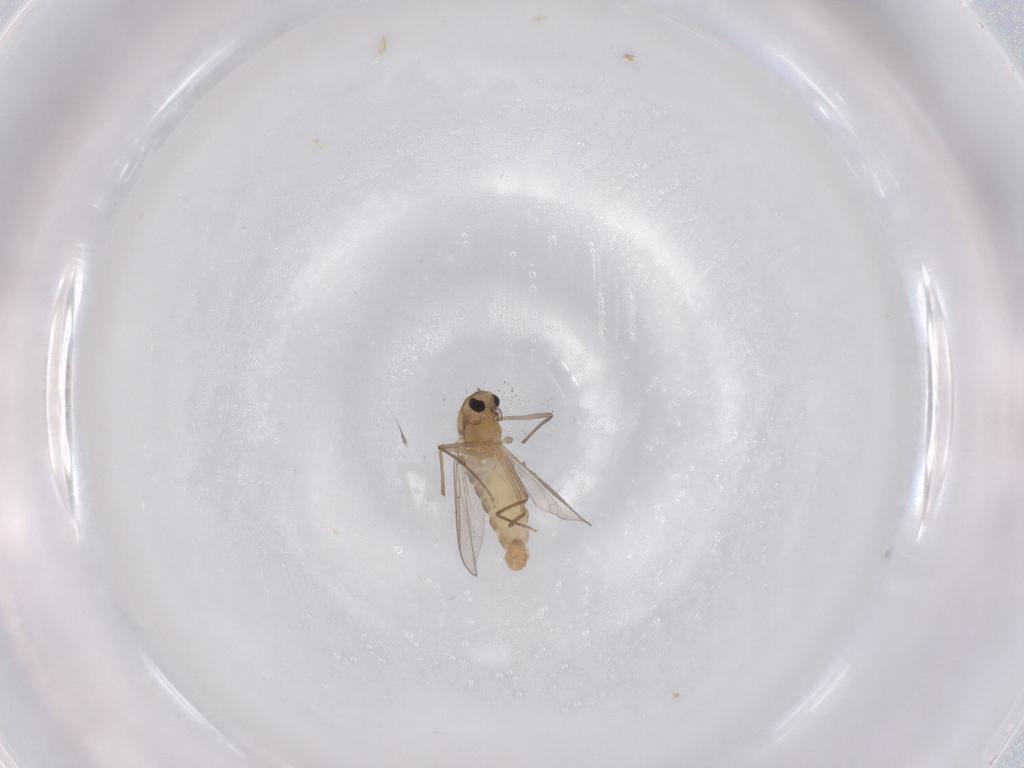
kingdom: Animalia
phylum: Arthropoda
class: Insecta
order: Diptera
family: Chironomidae
